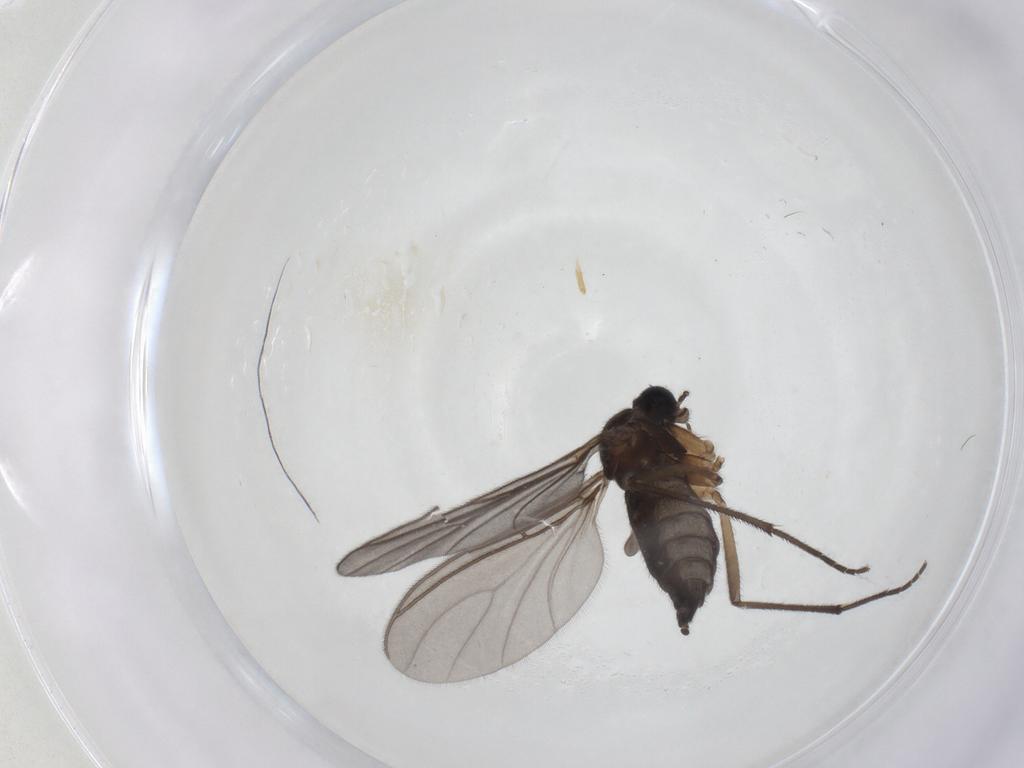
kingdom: Animalia
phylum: Arthropoda
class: Insecta
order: Diptera
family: Sciaridae
